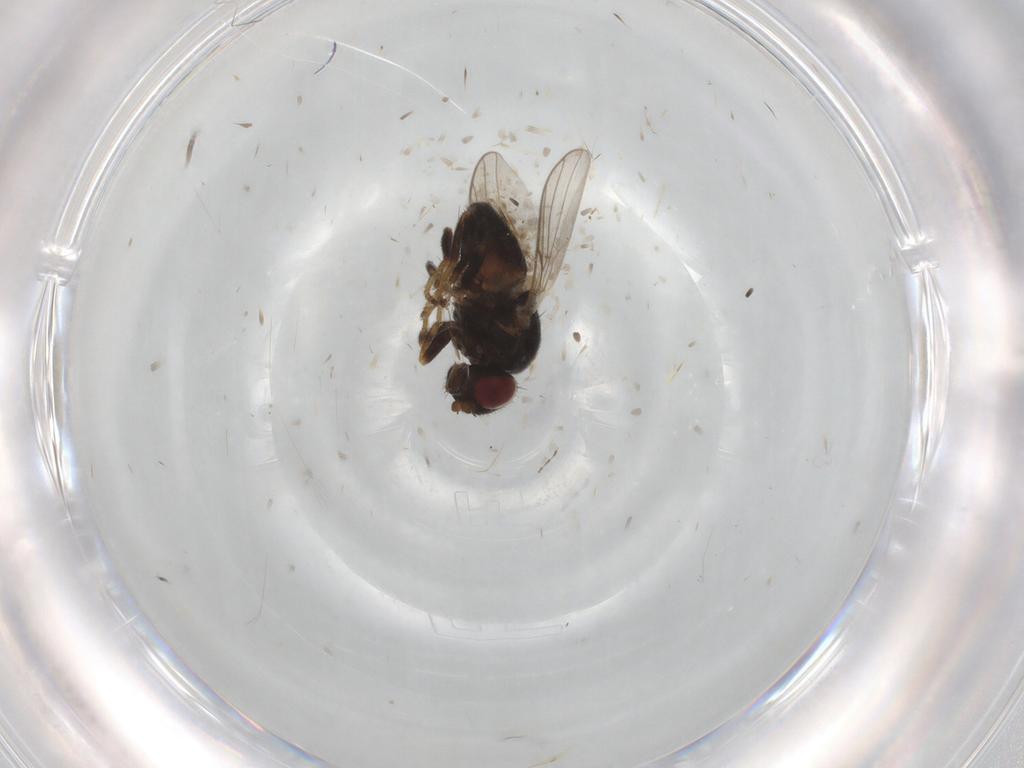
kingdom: Animalia
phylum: Arthropoda
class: Insecta
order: Diptera
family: Chloropidae
